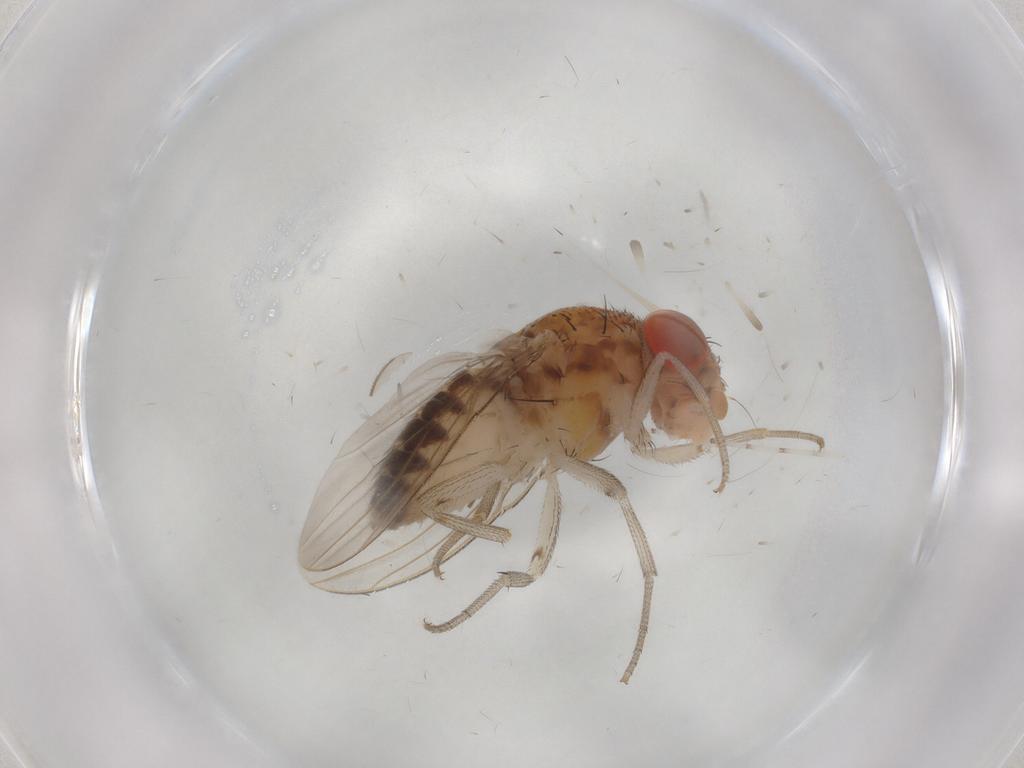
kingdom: Animalia
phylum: Arthropoda
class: Insecta
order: Diptera
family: Drosophilidae
